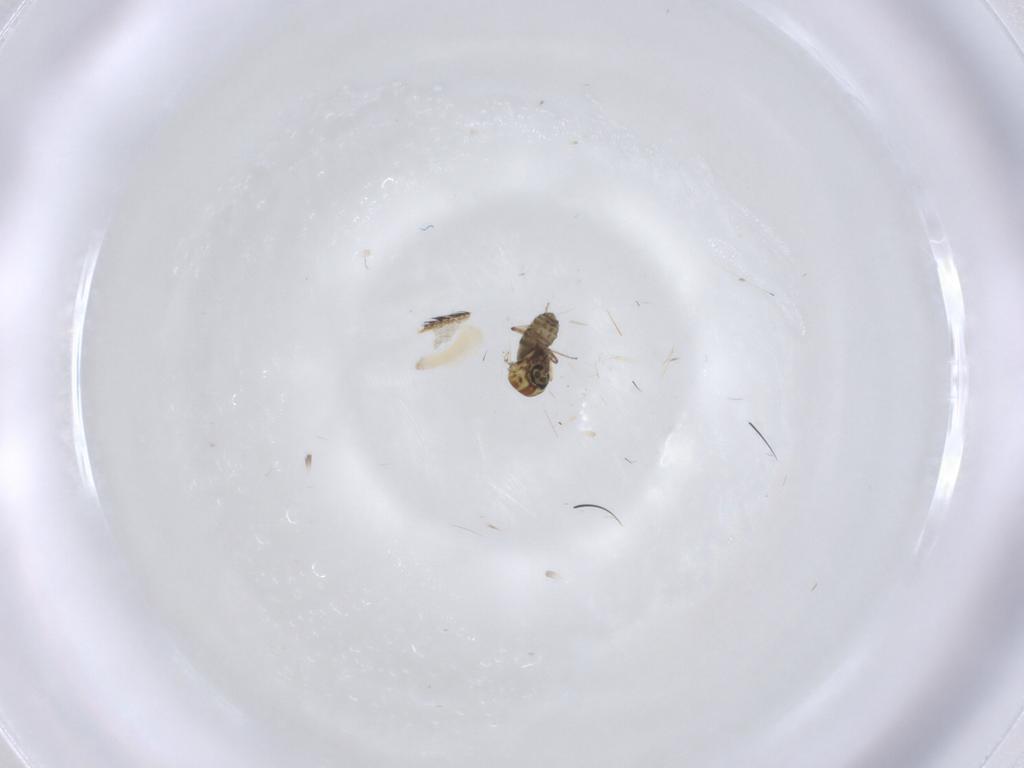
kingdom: Animalia
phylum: Arthropoda
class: Insecta
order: Diptera
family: Psychodidae
